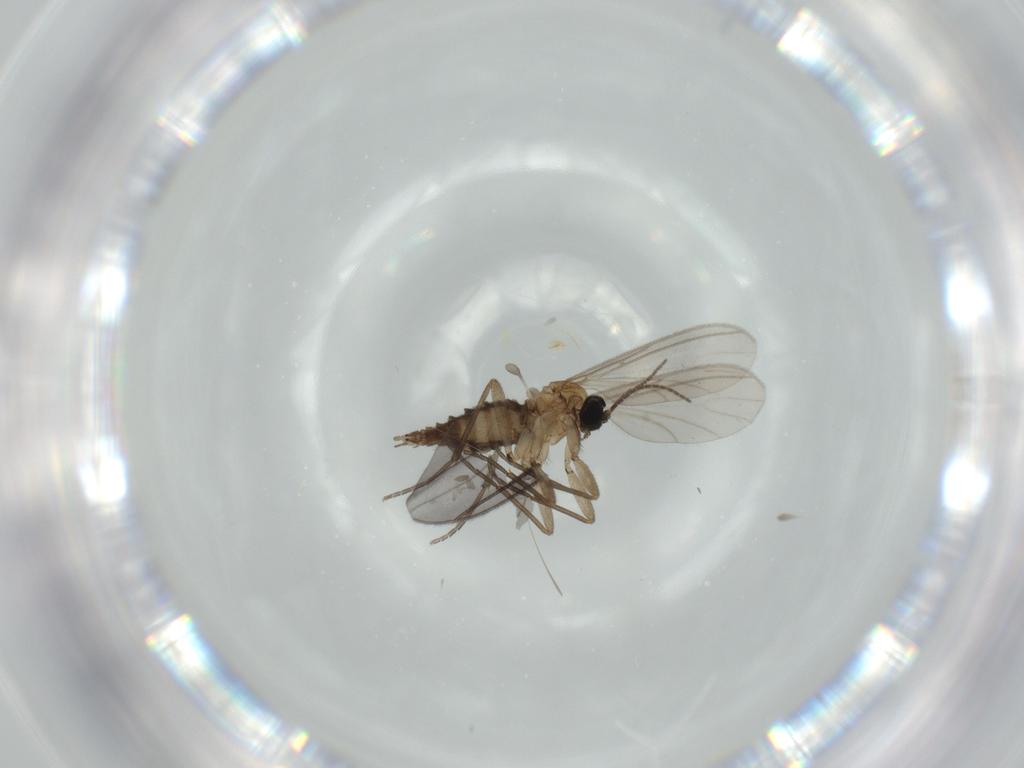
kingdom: Animalia
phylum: Arthropoda
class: Insecta
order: Diptera
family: Sciaridae
